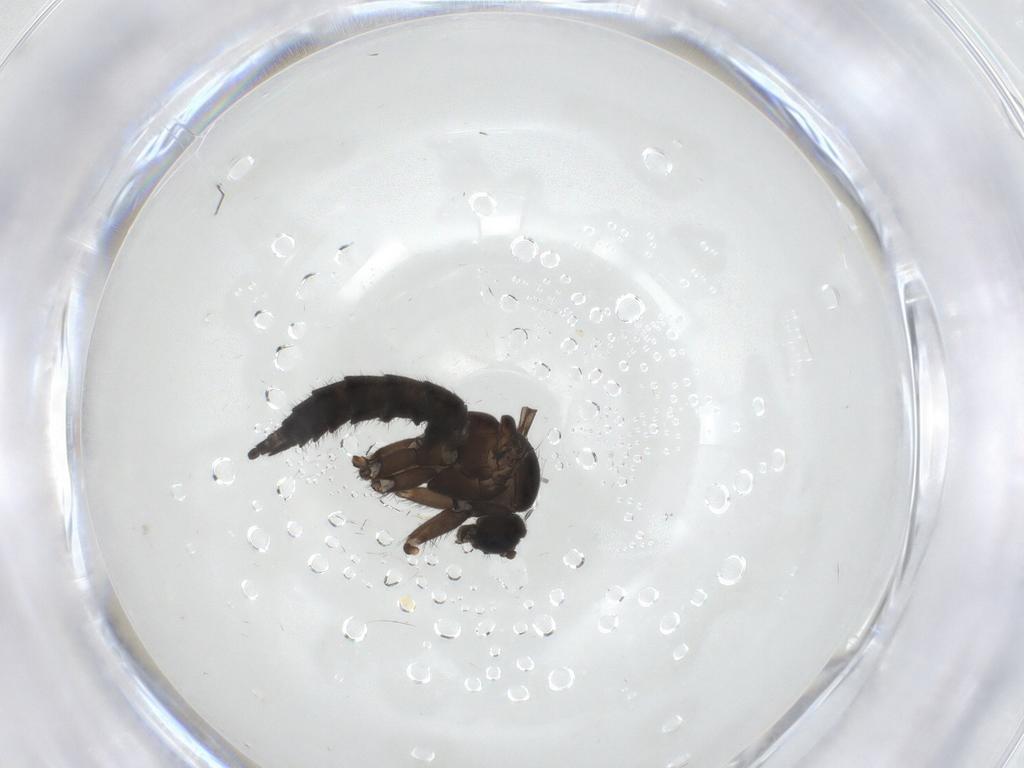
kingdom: Animalia
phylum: Arthropoda
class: Insecta
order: Diptera
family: Sciaridae
